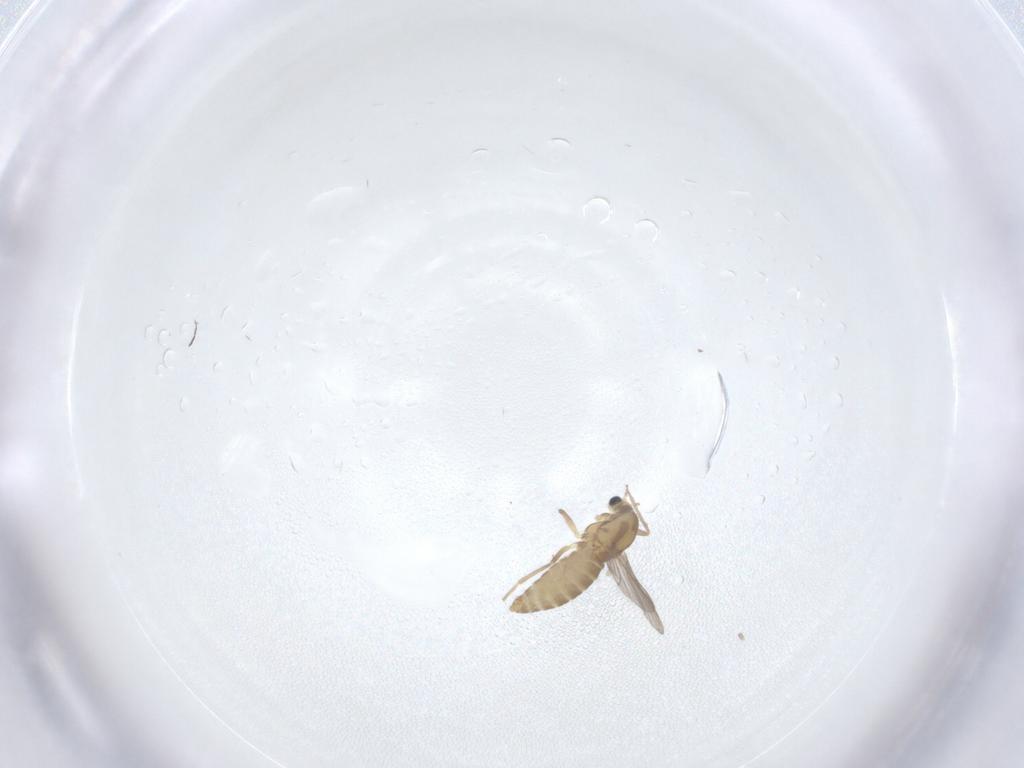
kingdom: Animalia
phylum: Arthropoda
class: Insecta
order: Diptera
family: Chironomidae
